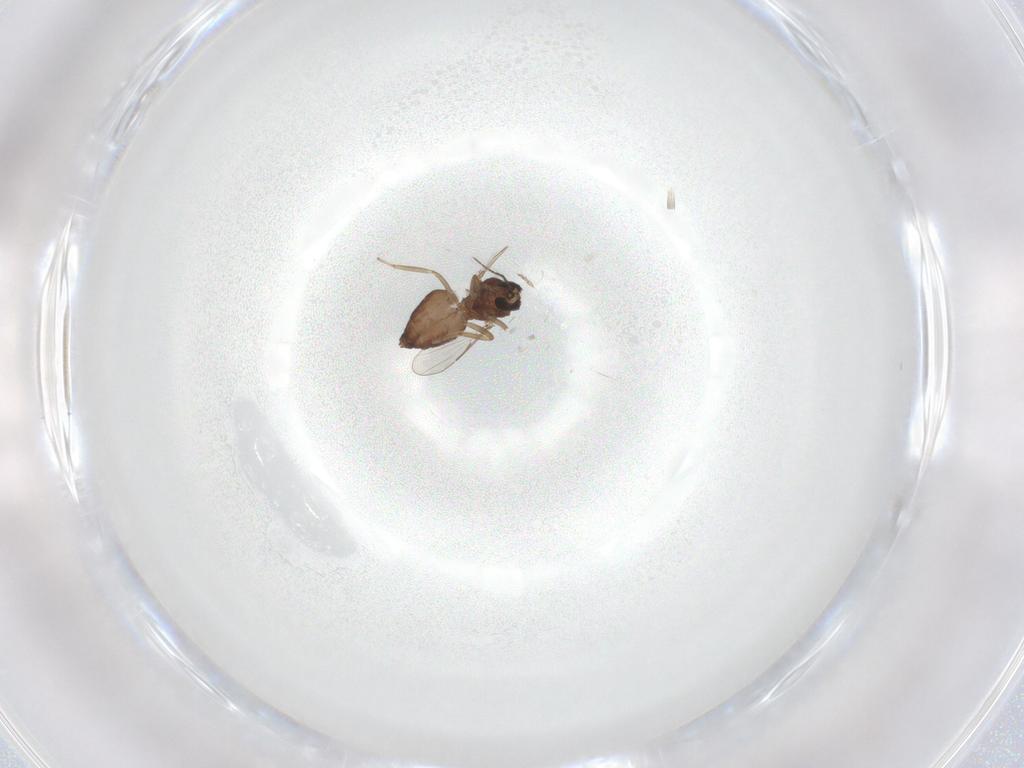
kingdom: Animalia
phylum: Arthropoda
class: Insecta
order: Diptera
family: Ceratopogonidae
